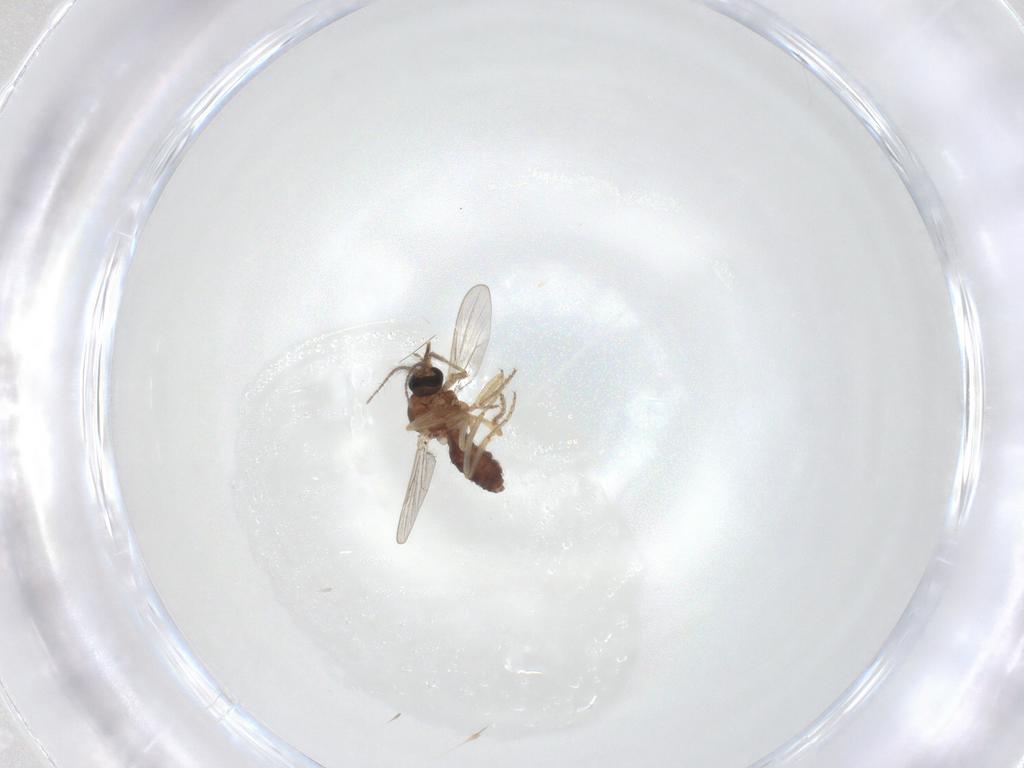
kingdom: Animalia
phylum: Arthropoda
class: Insecta
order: Diptera
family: Ceratopogonidae
